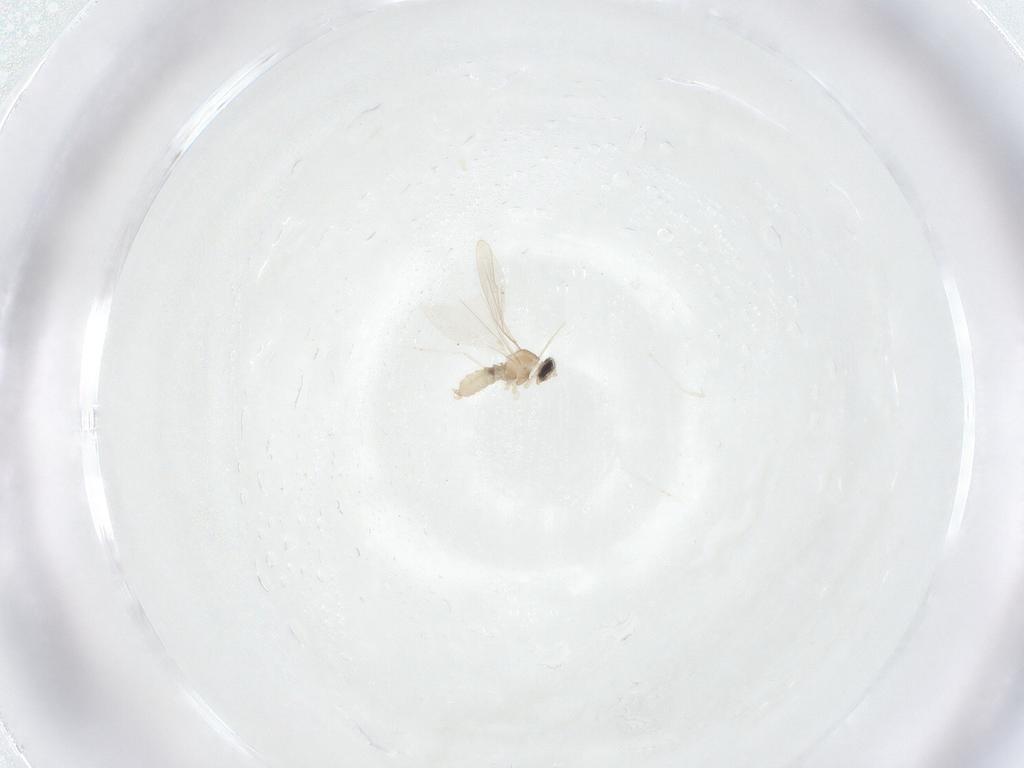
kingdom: Animalia
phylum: Arthropoda
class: Insecta
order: Diptera
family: Cecidomyiidae
